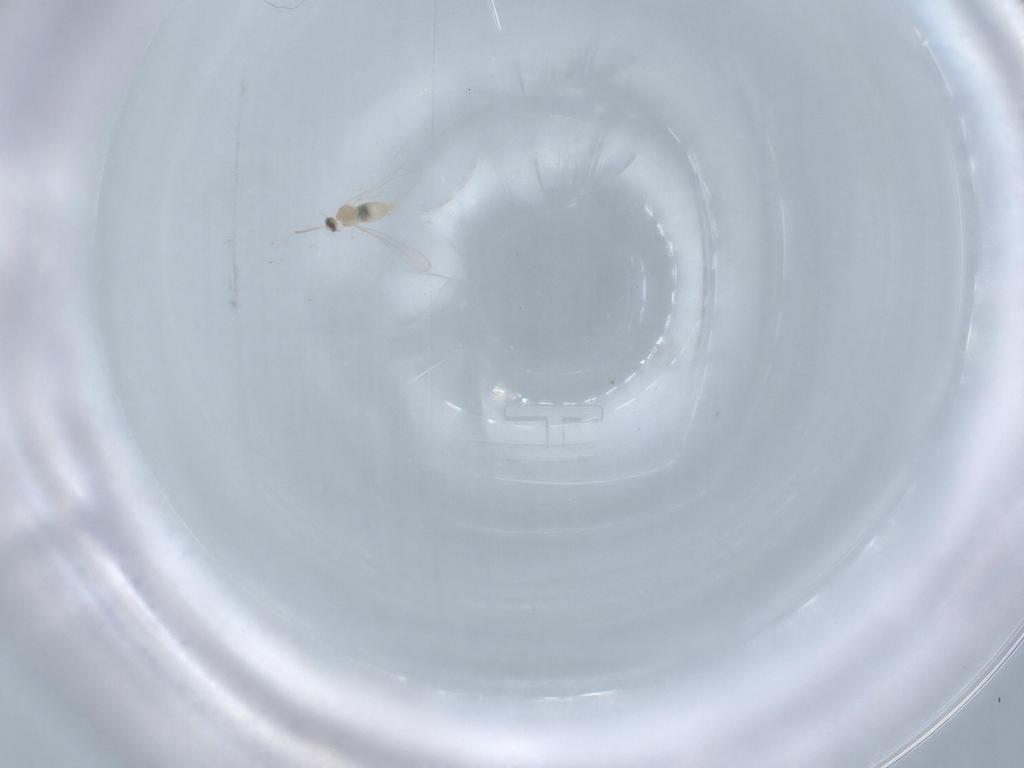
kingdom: Animalia
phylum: Arthropoda
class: Insecta
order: Diptera
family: Cecidomyiidae
